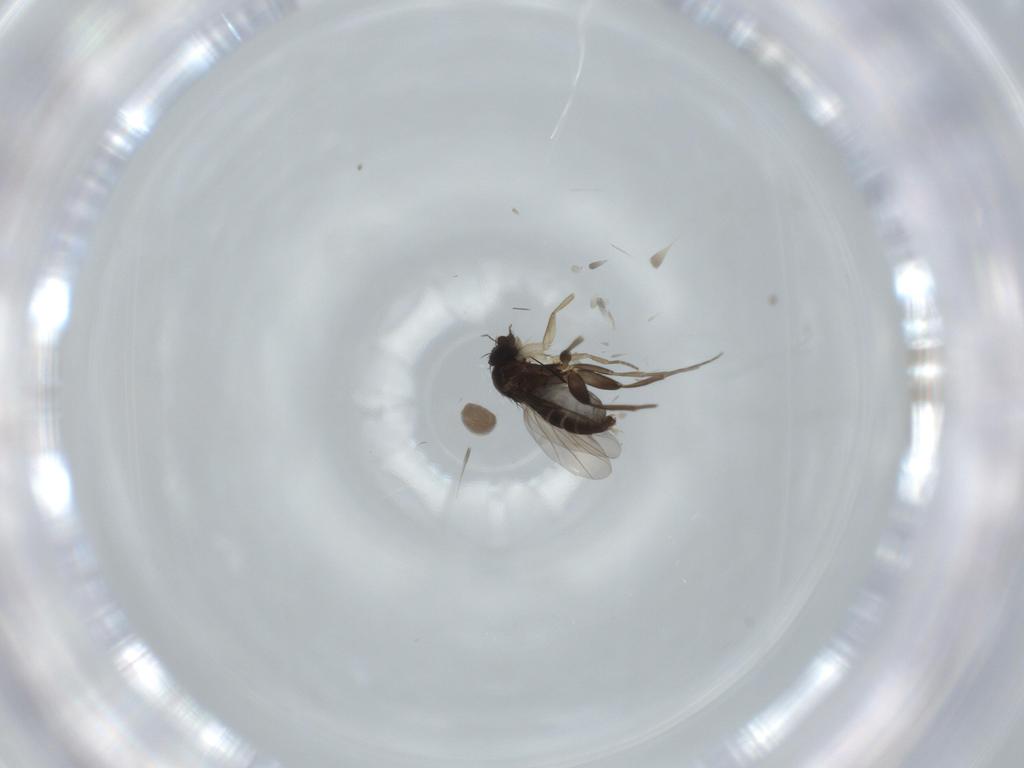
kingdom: Animalia
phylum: Arthropoda
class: Insecta
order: Diptera
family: Phoridae
